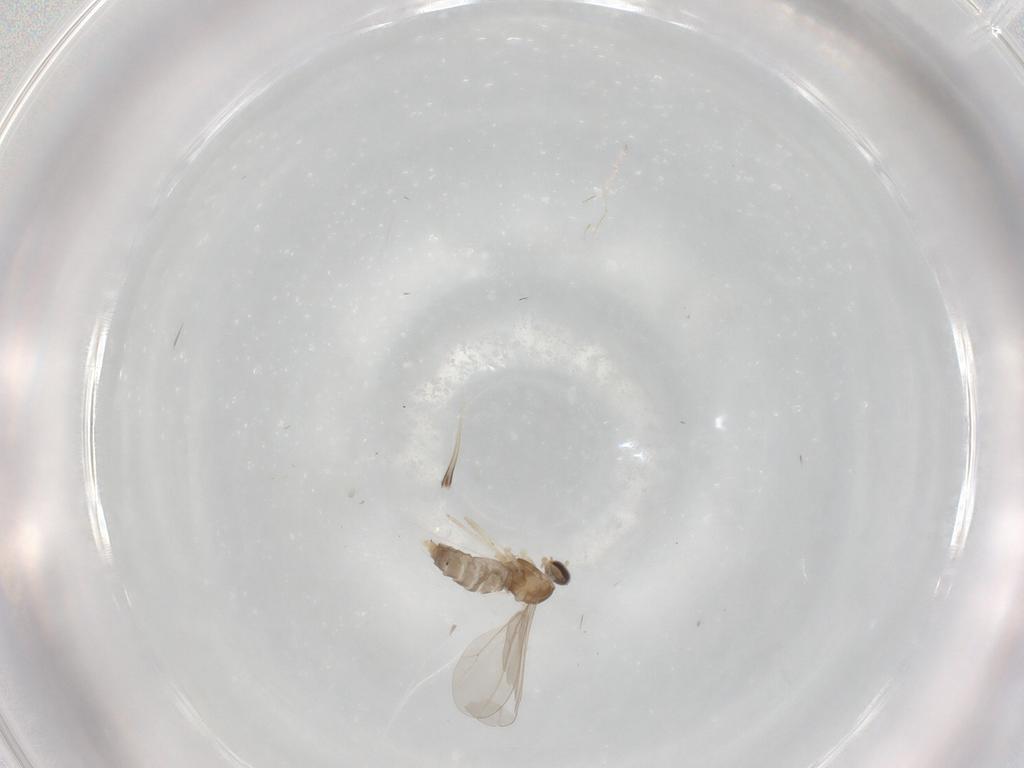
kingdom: Animalia
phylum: Arthropoda
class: Insecta
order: Diptera
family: Cecidomyiidae
